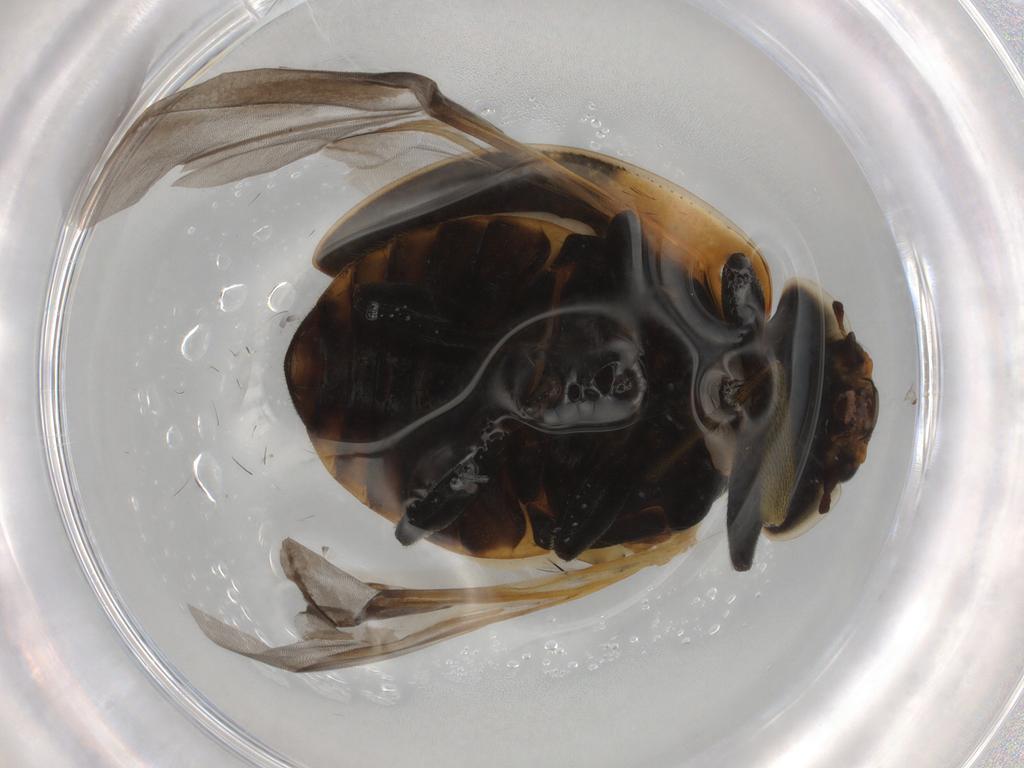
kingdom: Animalia
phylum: Arthropoda
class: Insecta
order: Coleoptera
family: Coccinellidae
